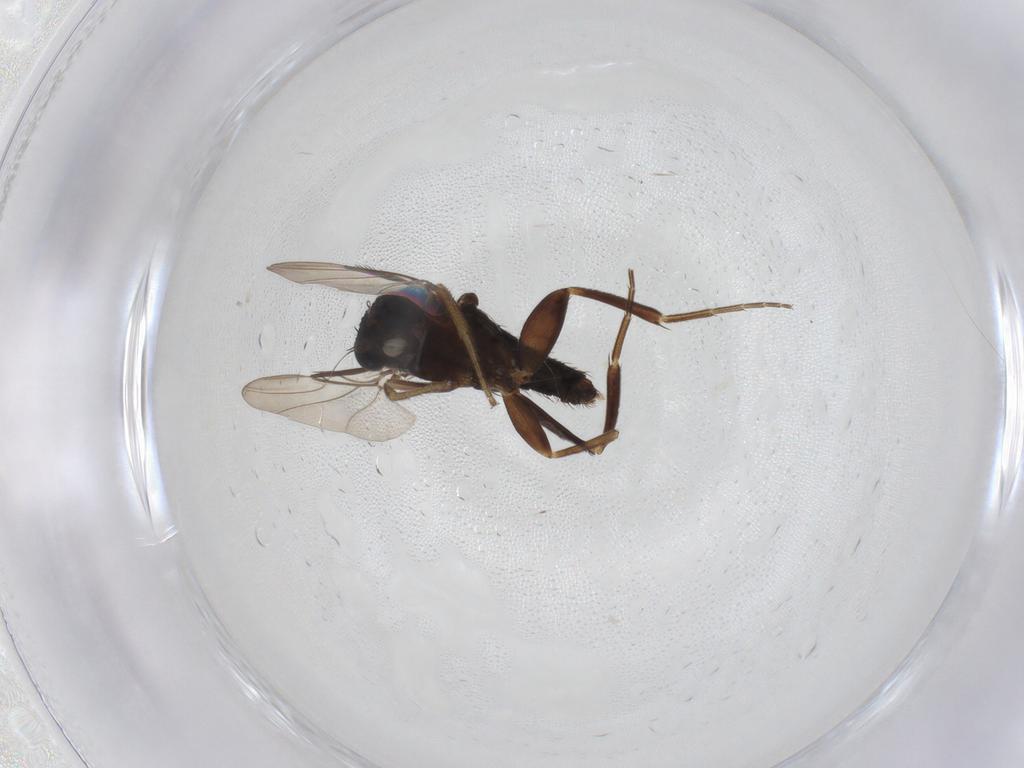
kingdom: Animalia
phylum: Arthropoda
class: Insecta
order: Diptera
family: Phoridae
